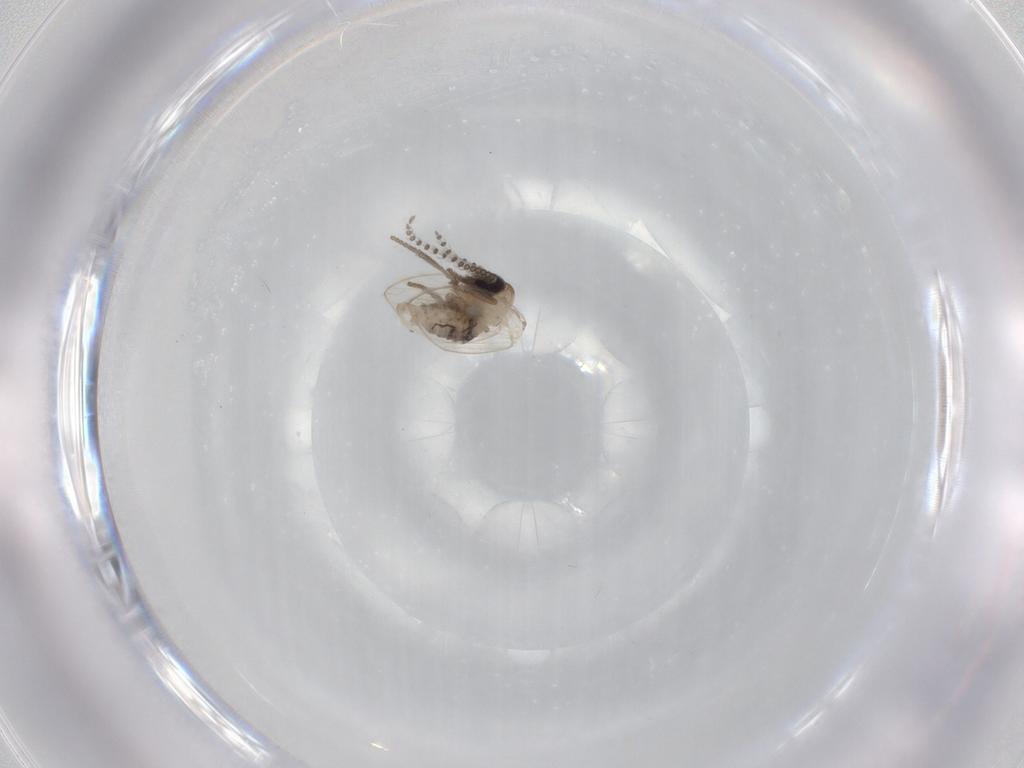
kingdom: Animalia
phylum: Arthropoda
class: Insecta
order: Diptera
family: Psychodidae
